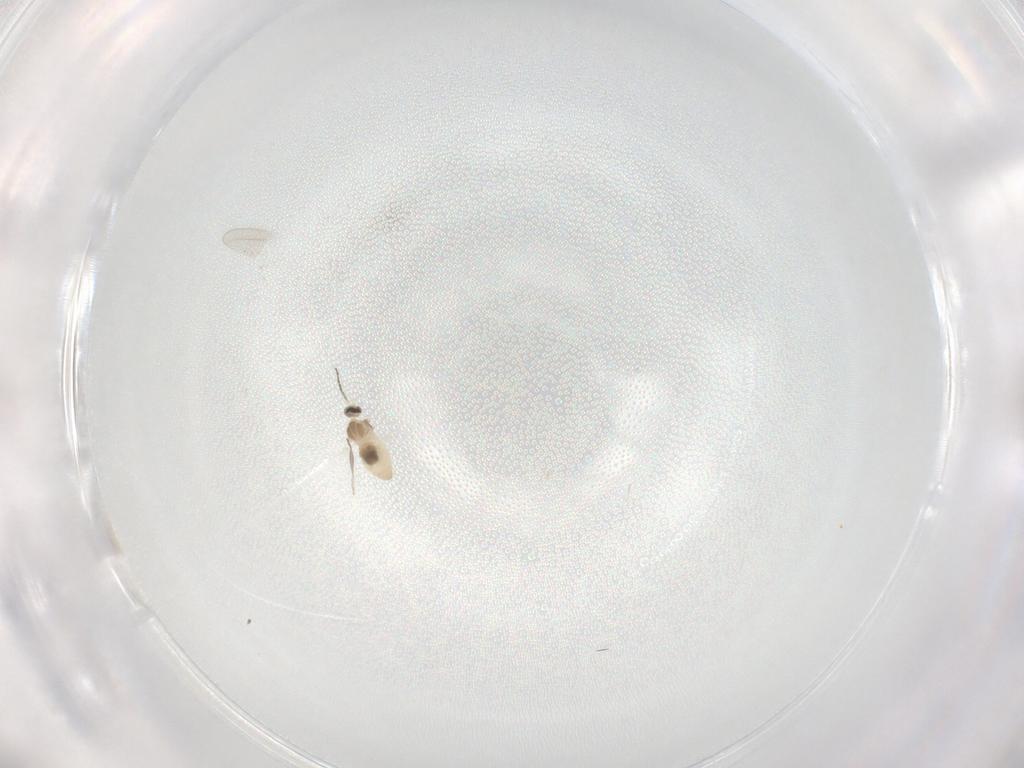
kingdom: Animalia
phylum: Arthropoda
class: Insecta
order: Diptera
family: Cecidomyiidae
